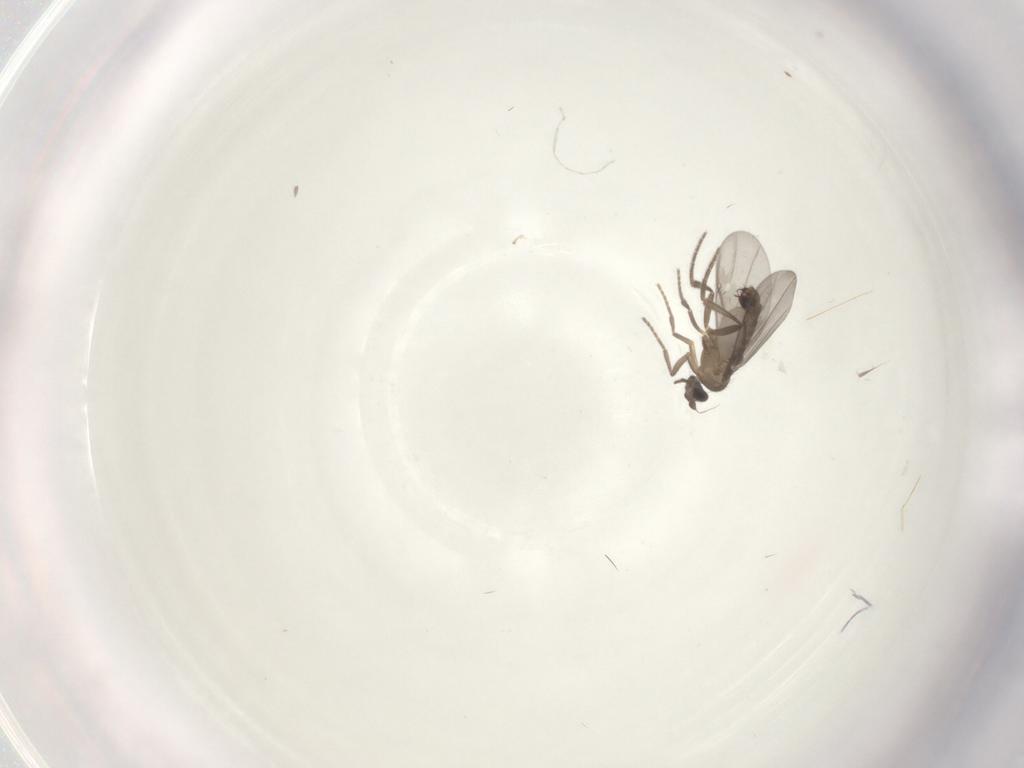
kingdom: Animalia
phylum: Arthropoda
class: Insecta
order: Diptera
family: Phoridae
